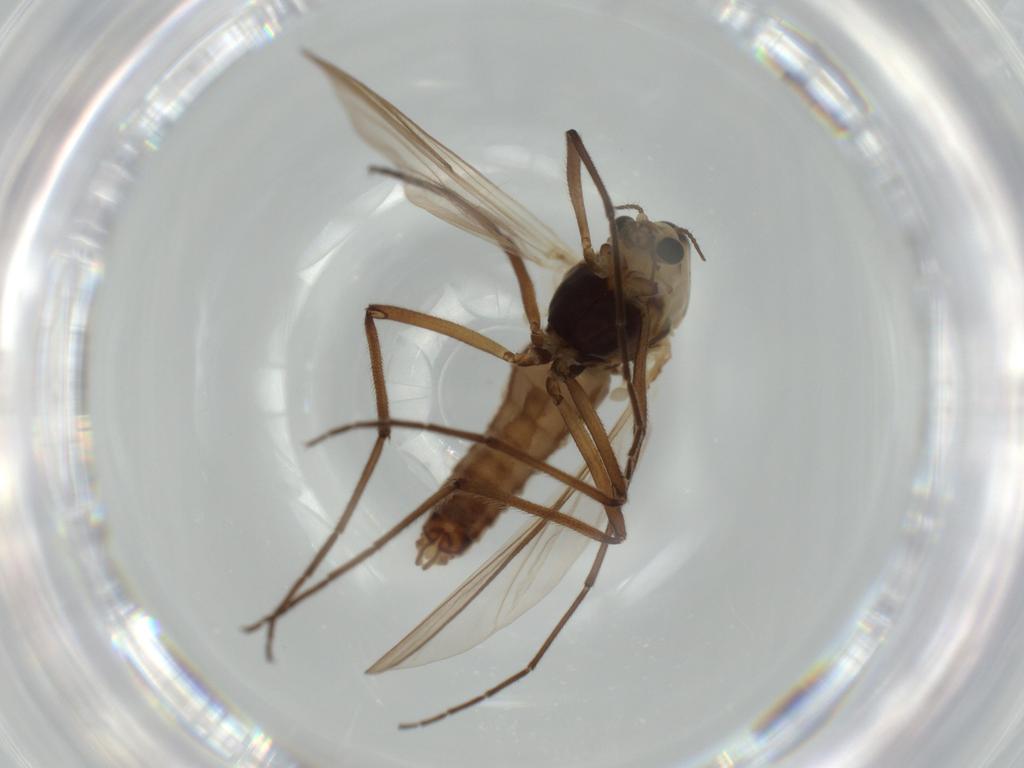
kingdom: Animalia
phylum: Arthropoda
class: Insecta
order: Diptera
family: Mycetophilidae
